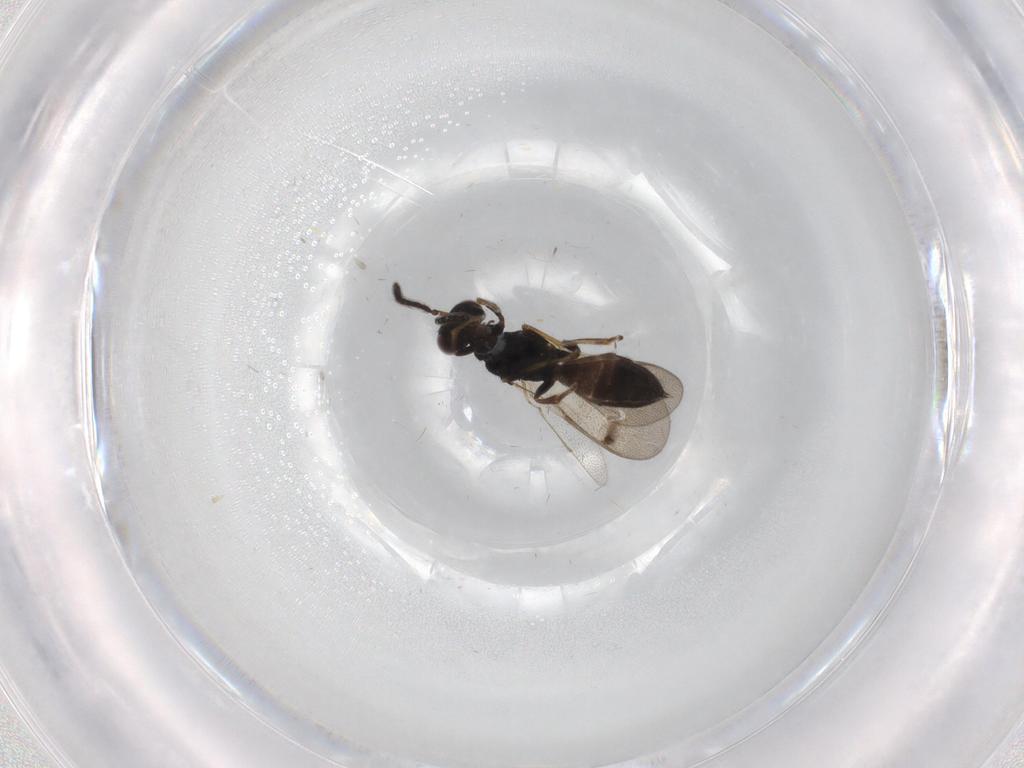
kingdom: Animalia
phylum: Arthropoda
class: Insecta
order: Hymenoptera
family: Pteromalidae
